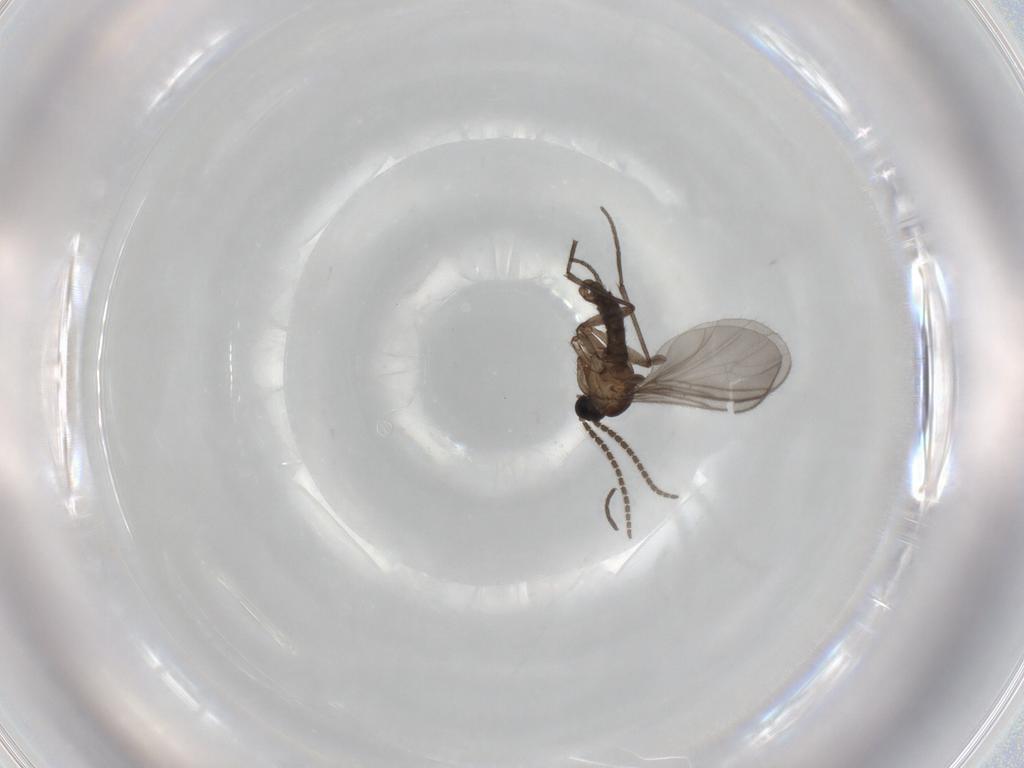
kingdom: Animalia
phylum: Arthropoda
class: Insecta
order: Diptera
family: Sciaridae
